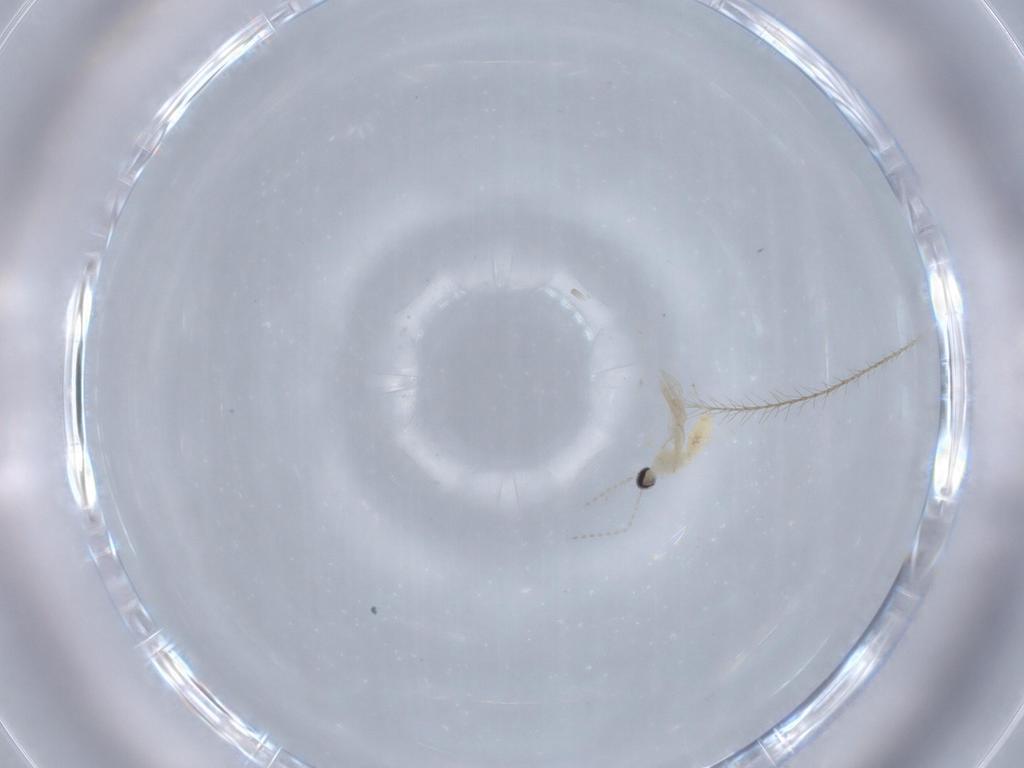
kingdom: Animalia
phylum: Arthropoda
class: Insecta
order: Diptera
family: Cecidomyiidae
